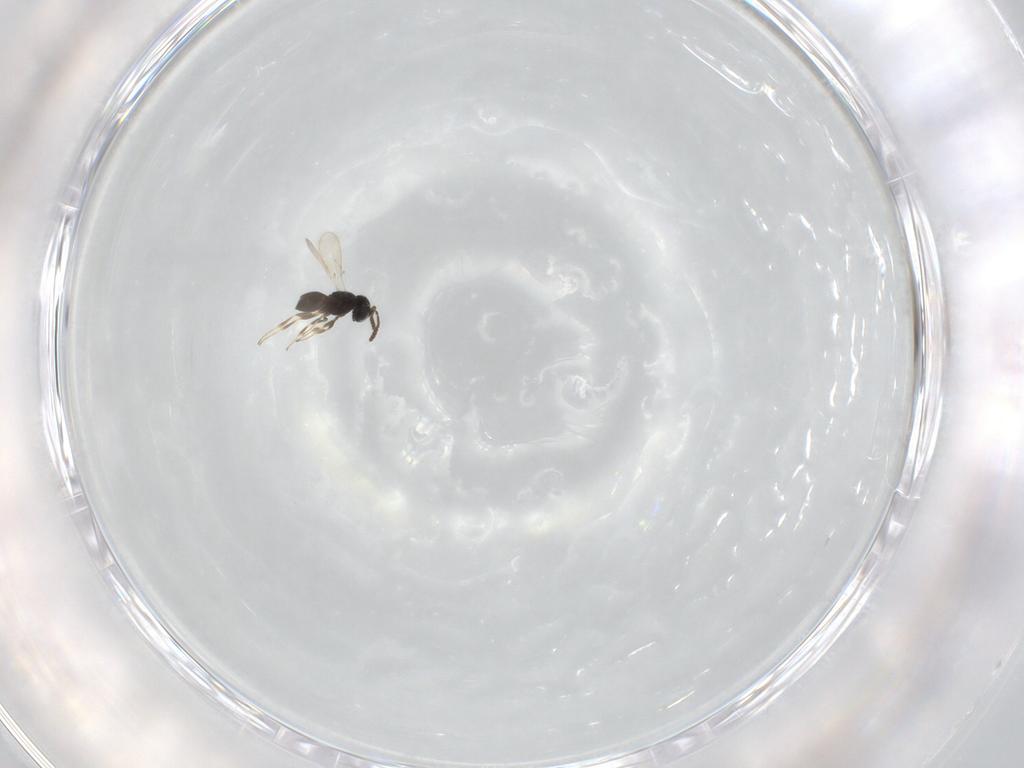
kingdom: Animalia
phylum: Arthropoda
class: Insecta
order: Hymenoptera
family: Scelionidae
